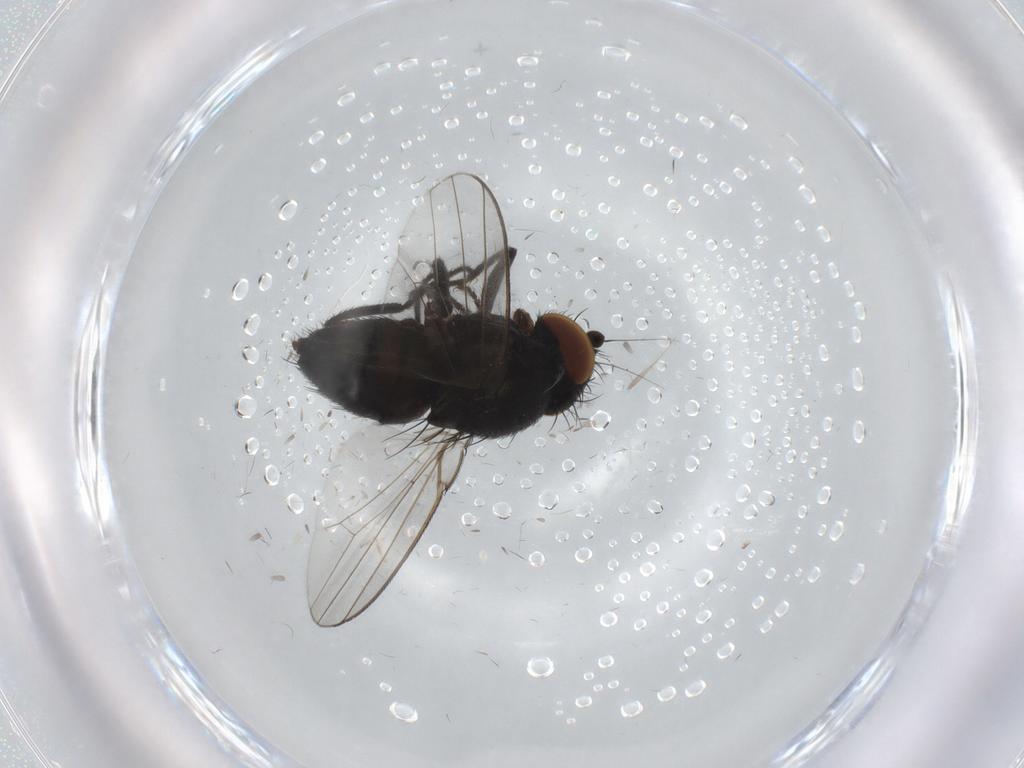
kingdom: Animalia
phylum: Arthropoda
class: Insecta
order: Diptera
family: Milichiidae
